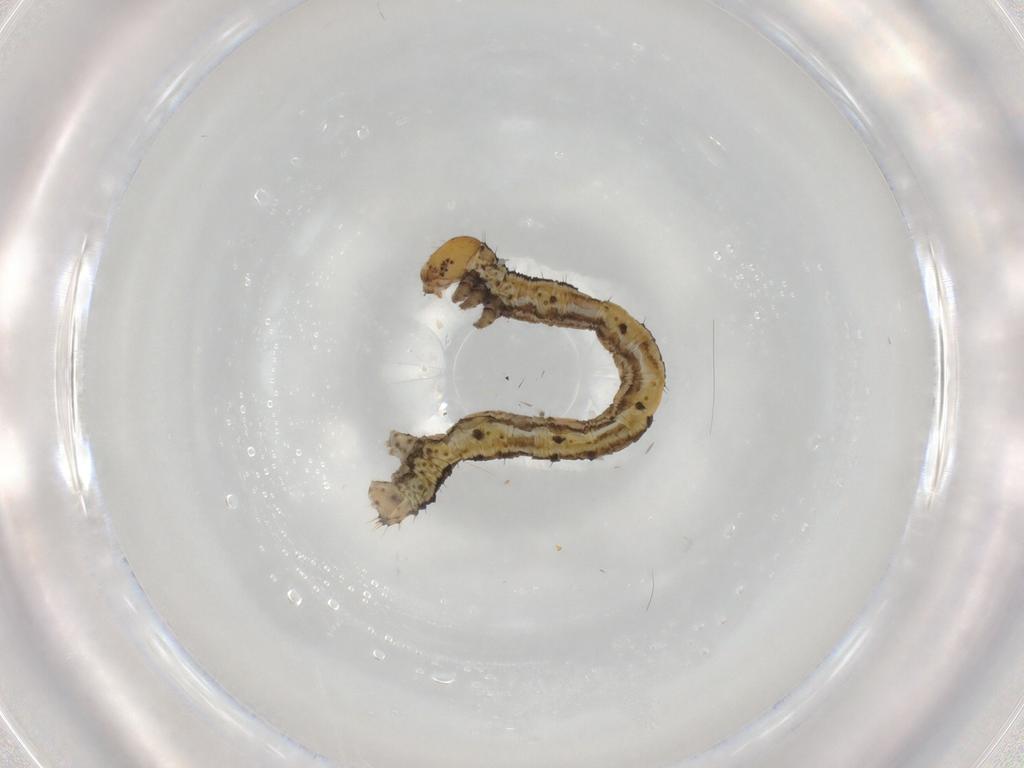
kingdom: Animalia
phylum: Arthropoda
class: Insecta
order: Lepidoptera
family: Geometridae
